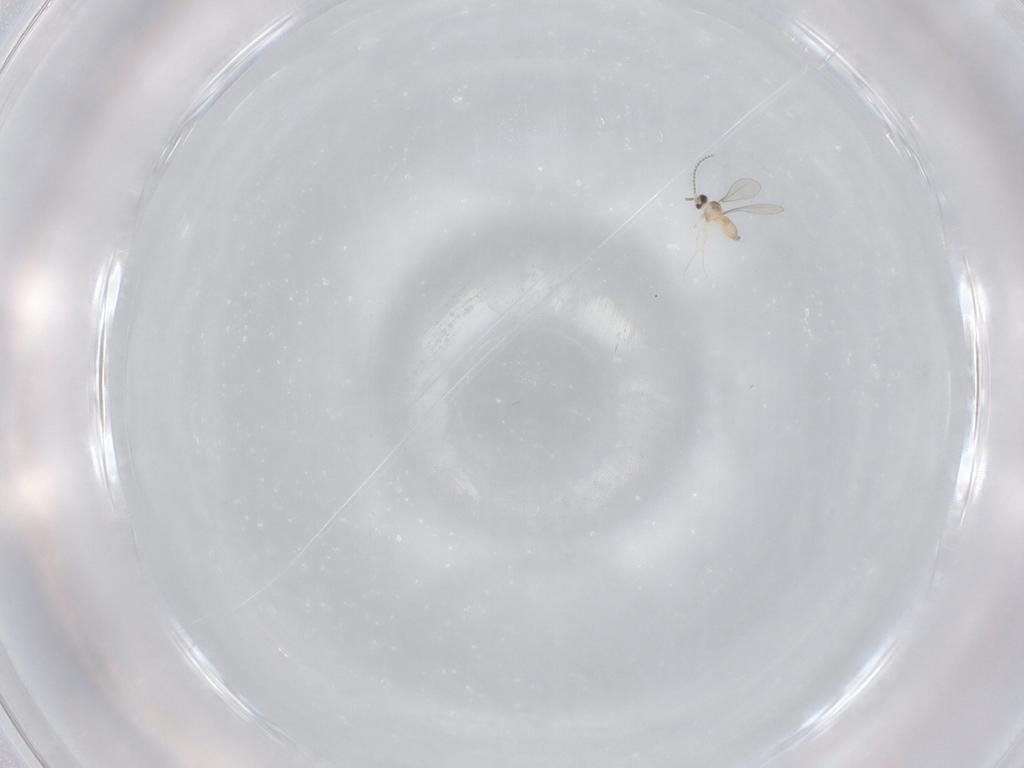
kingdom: Animalia
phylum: Arthropoda
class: Insecta
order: Diptera
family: Cecidomyiidae
